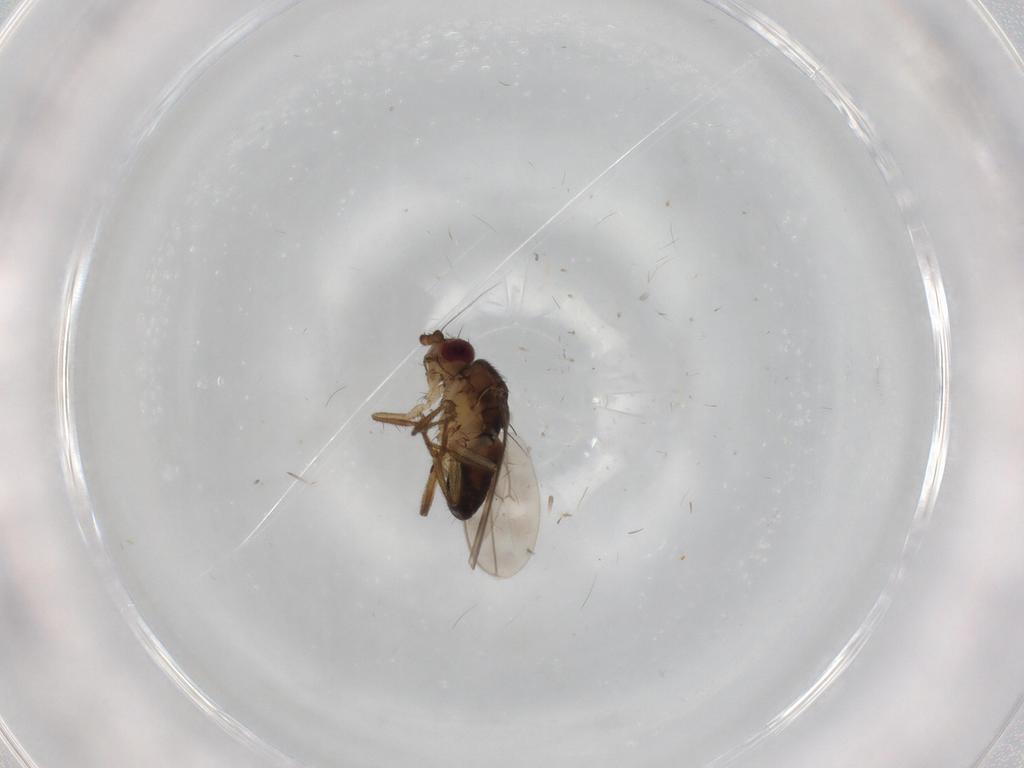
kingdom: Animalia
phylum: Arthropoda
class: Insecta
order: Diptera
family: Sphaeroceridae
